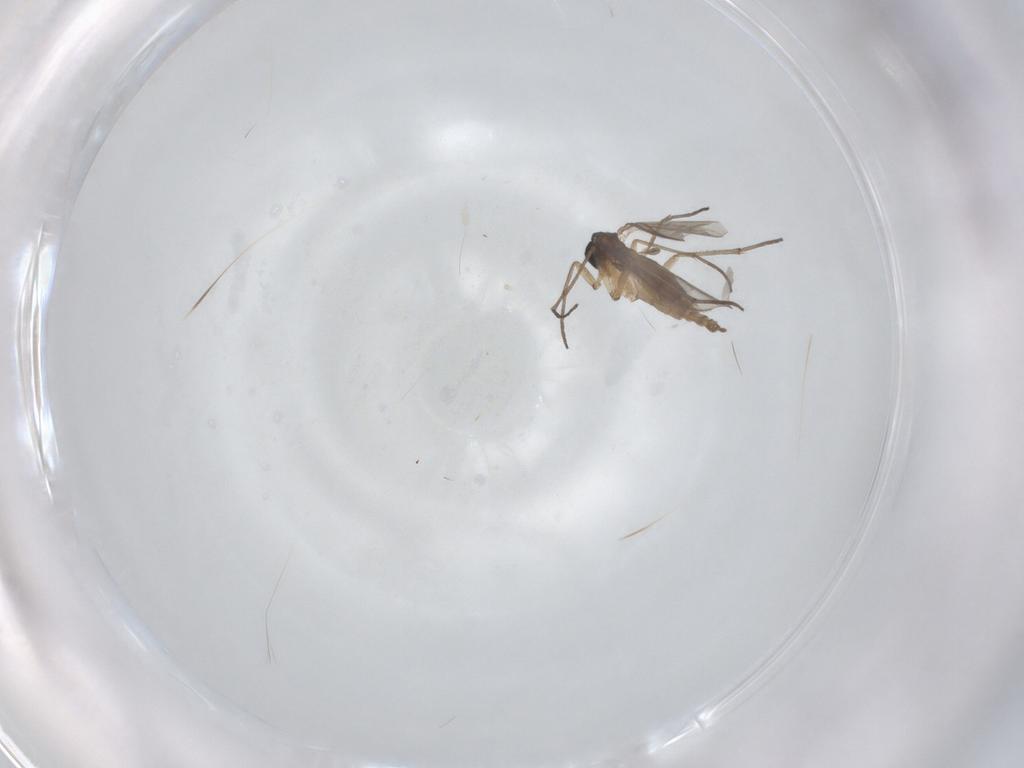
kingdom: Animalia
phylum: Arthropoda
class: Insecta
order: Diptera
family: Sciaridae
